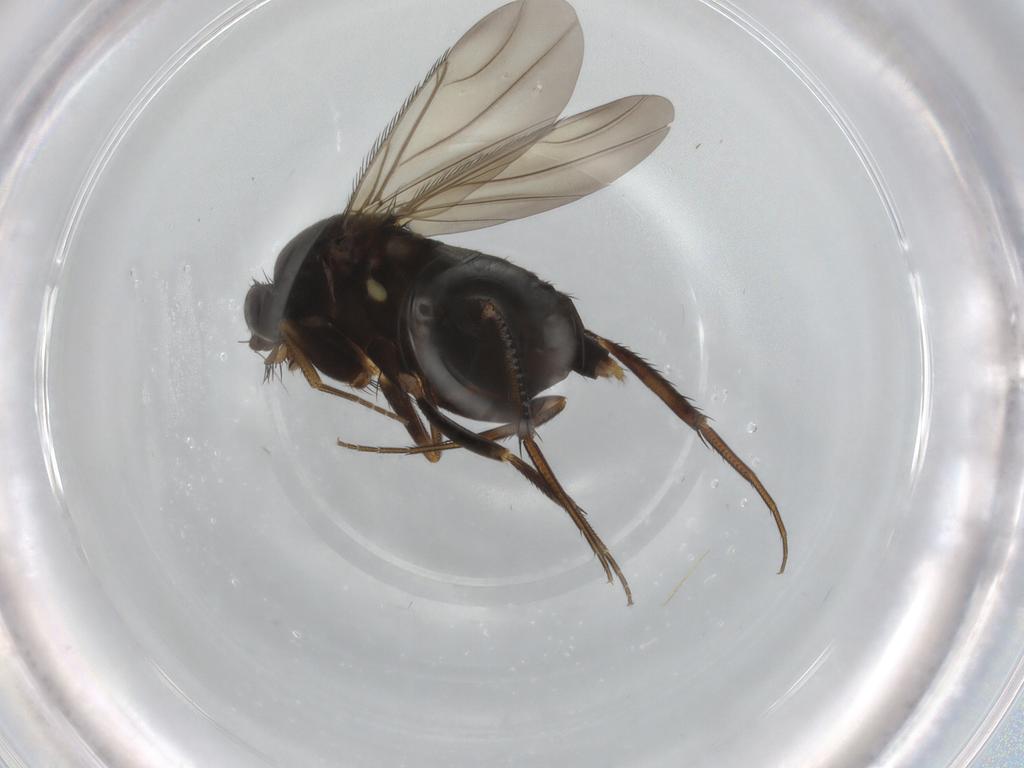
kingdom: Animalia
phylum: Arthropoda
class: Insecta
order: Diptera
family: Phoridae
